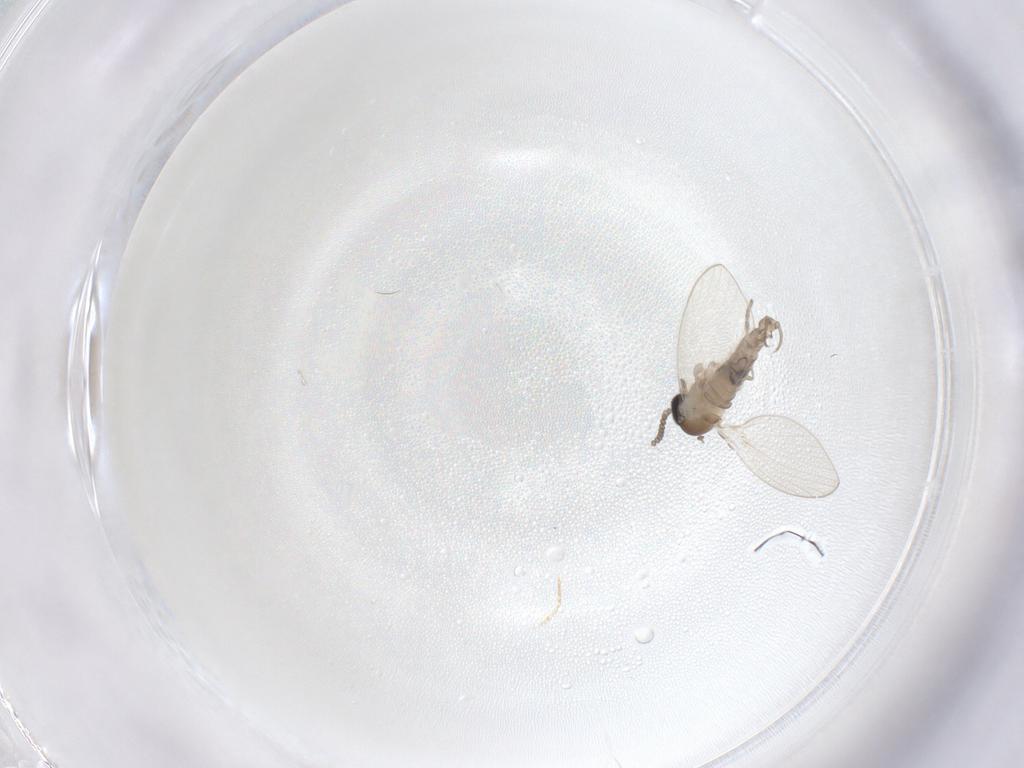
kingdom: Animalia
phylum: Arthropoda
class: Insecta
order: Diptera
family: Psychodidae
